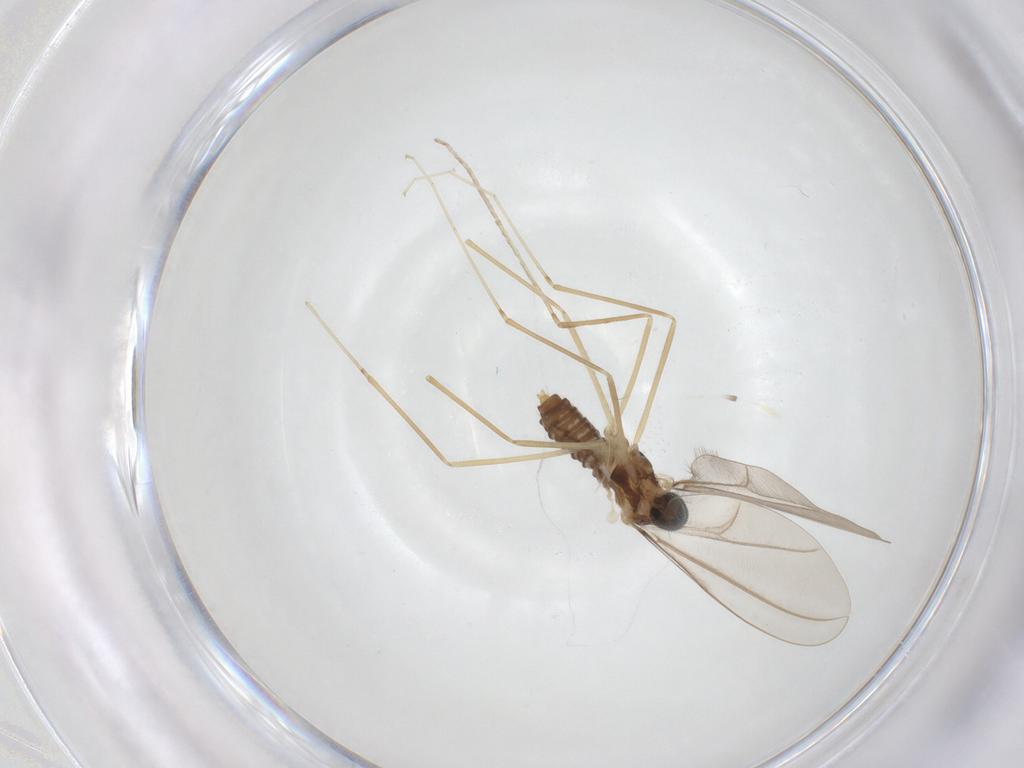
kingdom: Animalia
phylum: Arthropoda
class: Insecta
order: Diptera
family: Cecidomyiidae
